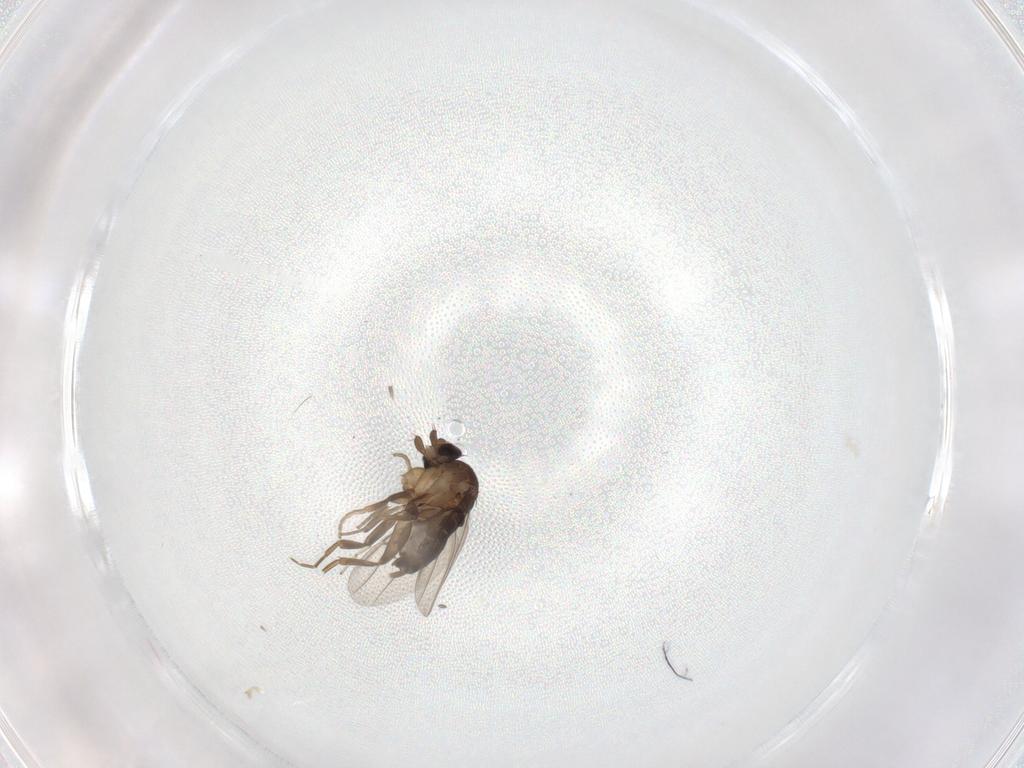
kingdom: Animalia
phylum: Arthropoda
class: Insecta
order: Diptera
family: Phoridae
